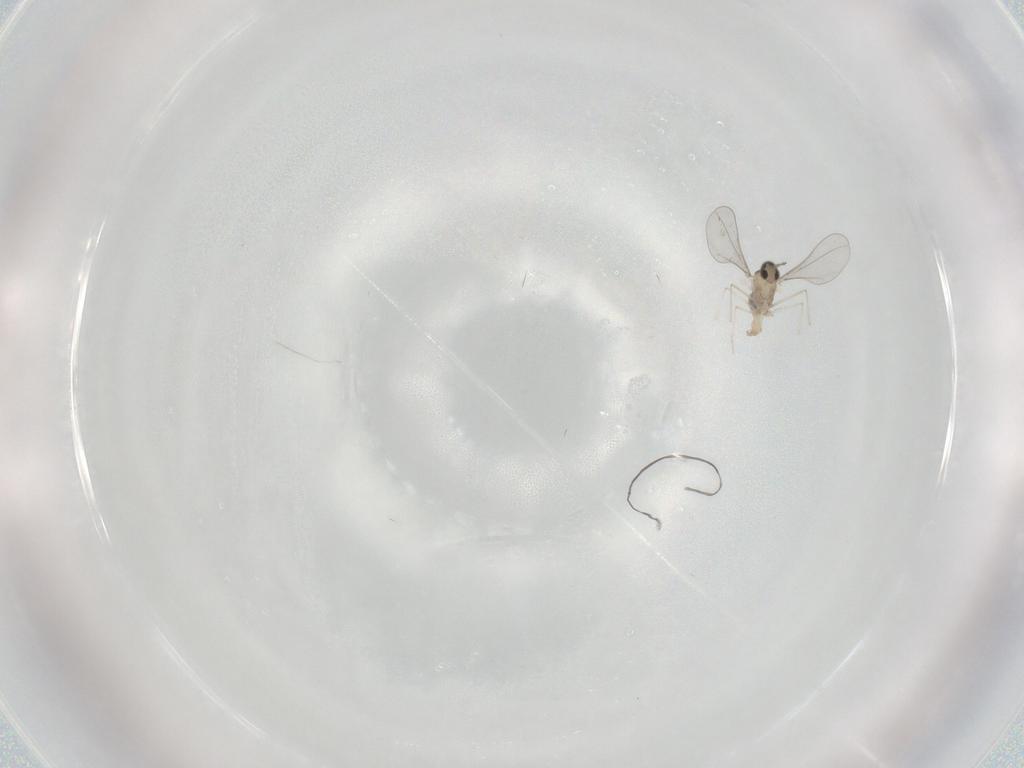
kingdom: Animalia
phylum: Arthropoda
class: Insecta
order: Diptera
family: Cecidomyiidae
